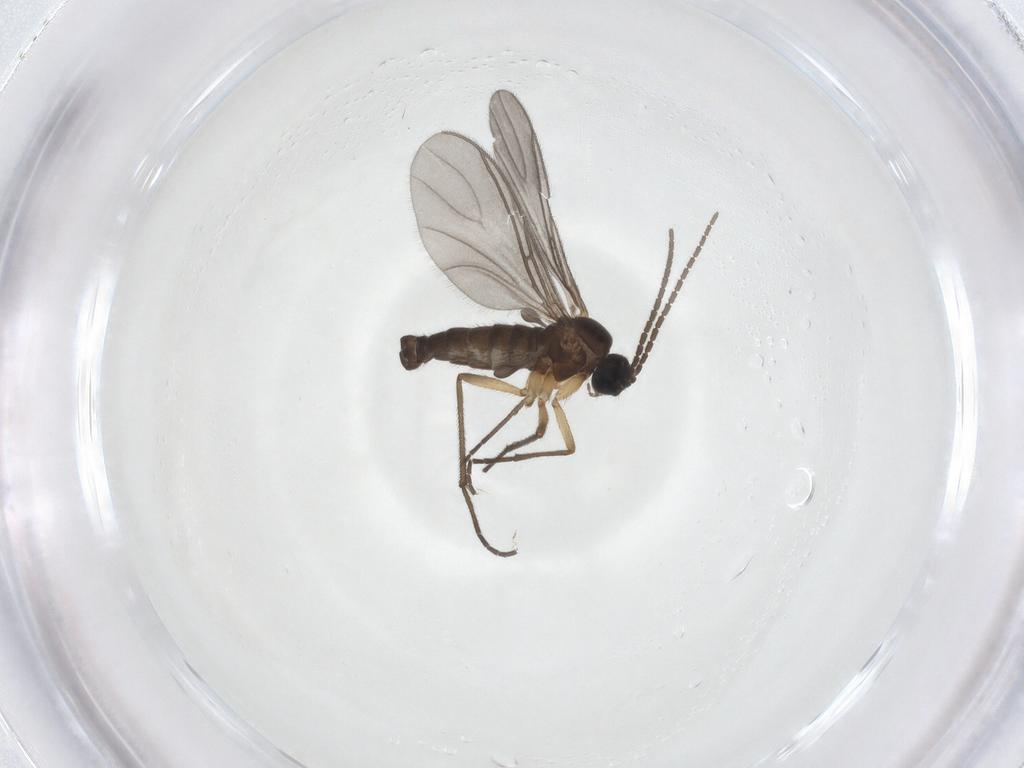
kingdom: Animalia
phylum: Arthropoda
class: Insecta
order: Diptera
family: Sciaridae
